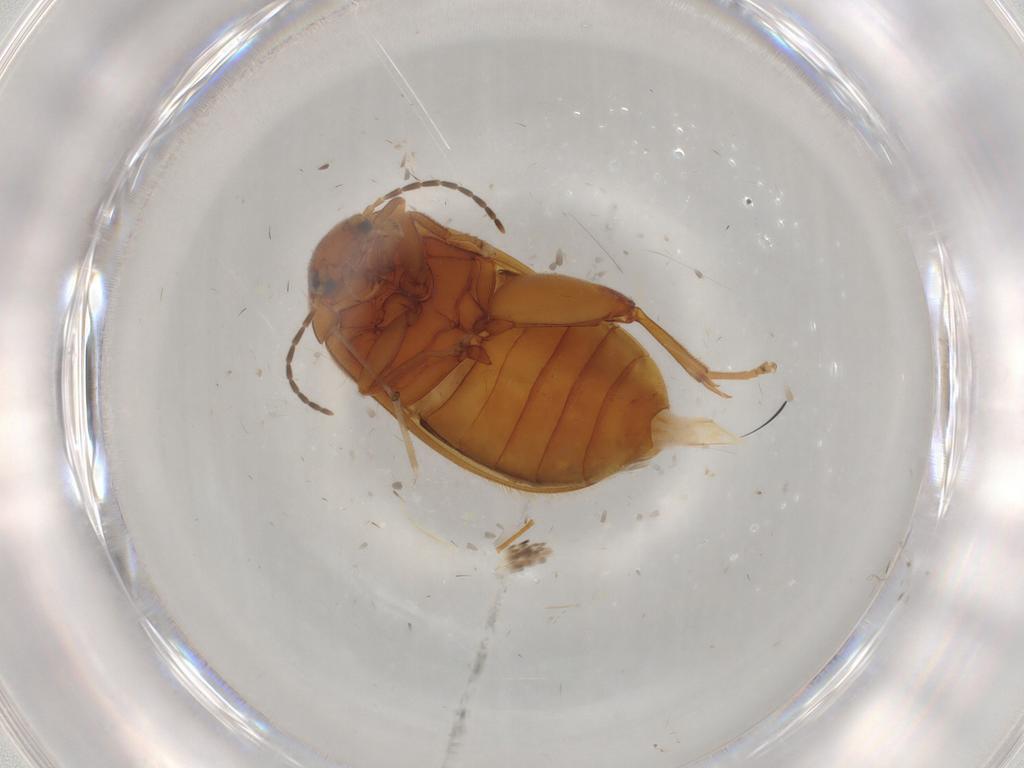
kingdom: Animalia
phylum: Arthropoda
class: Insecta
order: Coleoptera
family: Scirtidae
